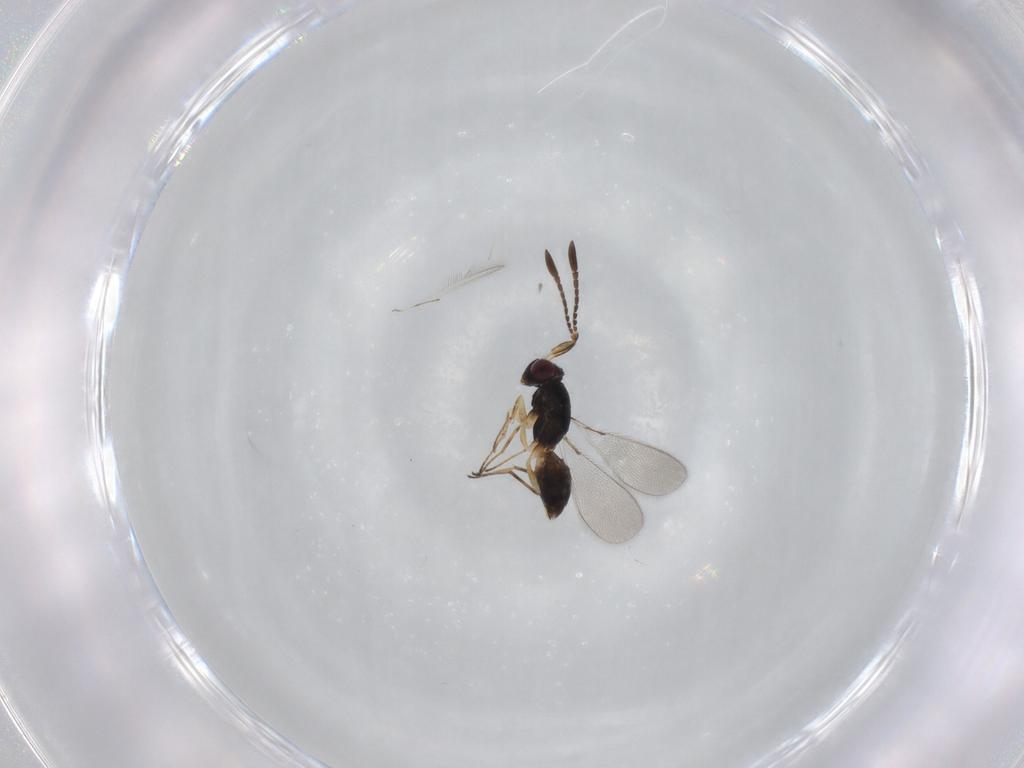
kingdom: Animalia
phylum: Arthropoda
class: Insecta
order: Hymenoptera
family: Mymaridae
